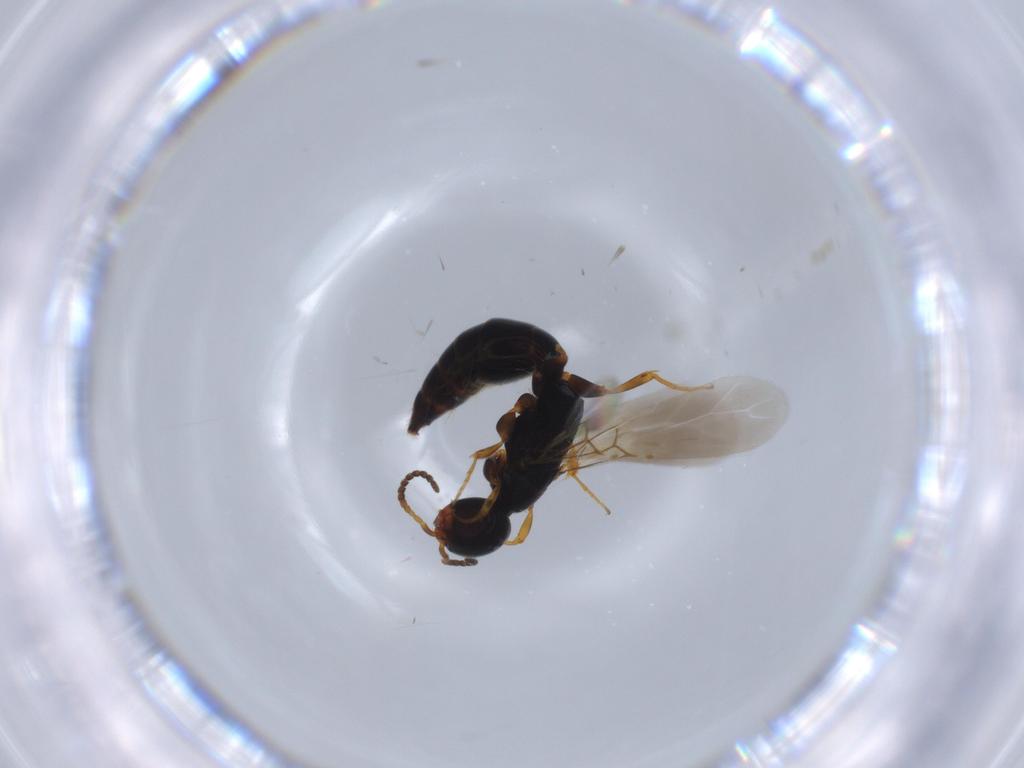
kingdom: Animalia
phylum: Arthropoda
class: Insecta
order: Hymenoptera
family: Bethylidae
